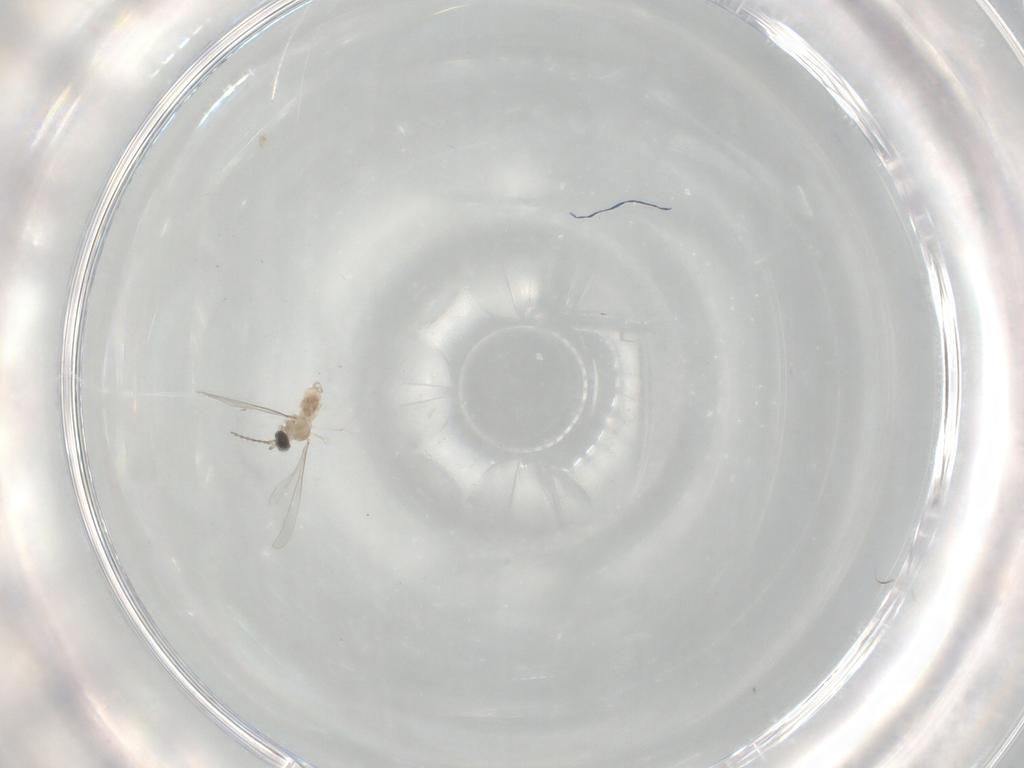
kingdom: Animalia
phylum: Arthropoda
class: Insecta
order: Diptera
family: Cecidomyiidae
